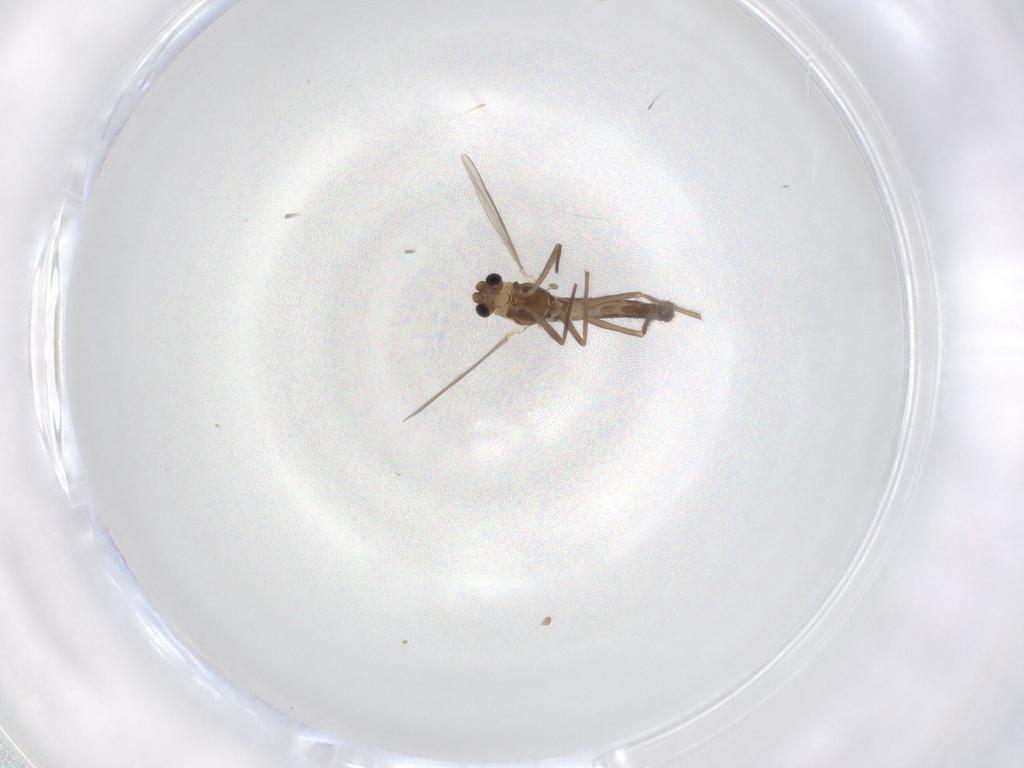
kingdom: Animalia
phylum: Arthropoda
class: Insecta
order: Diptera
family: Chironomidae
